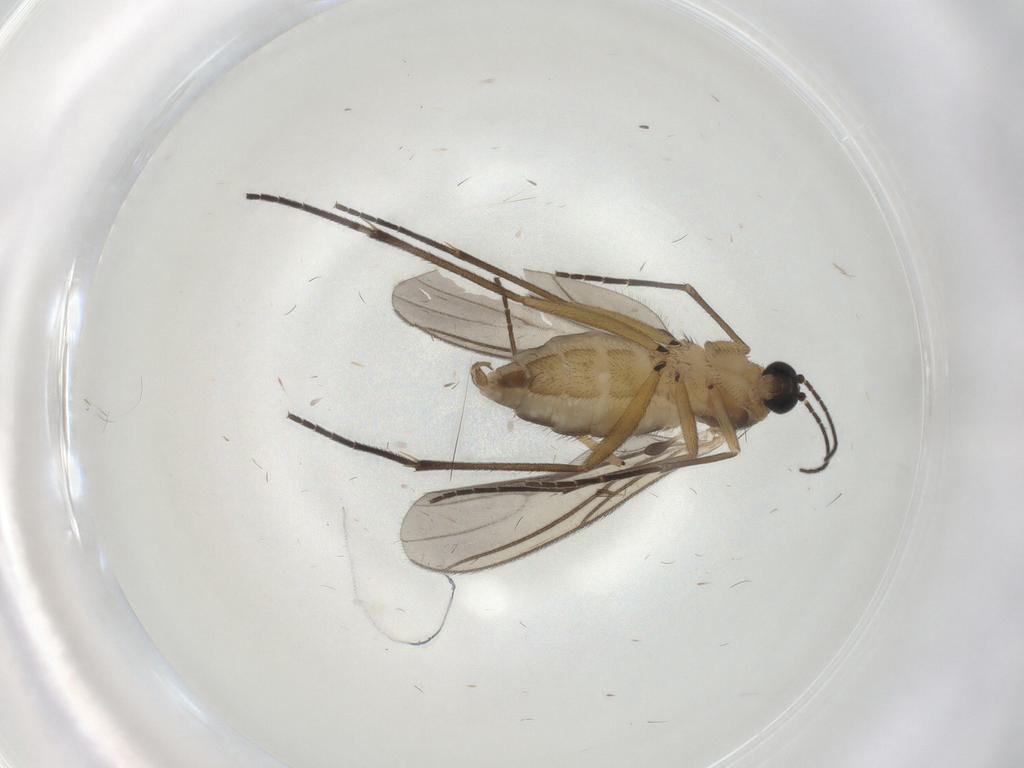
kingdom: Animalia
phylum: Arthropoda
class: Insecta
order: Diptera
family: Sciaridae
